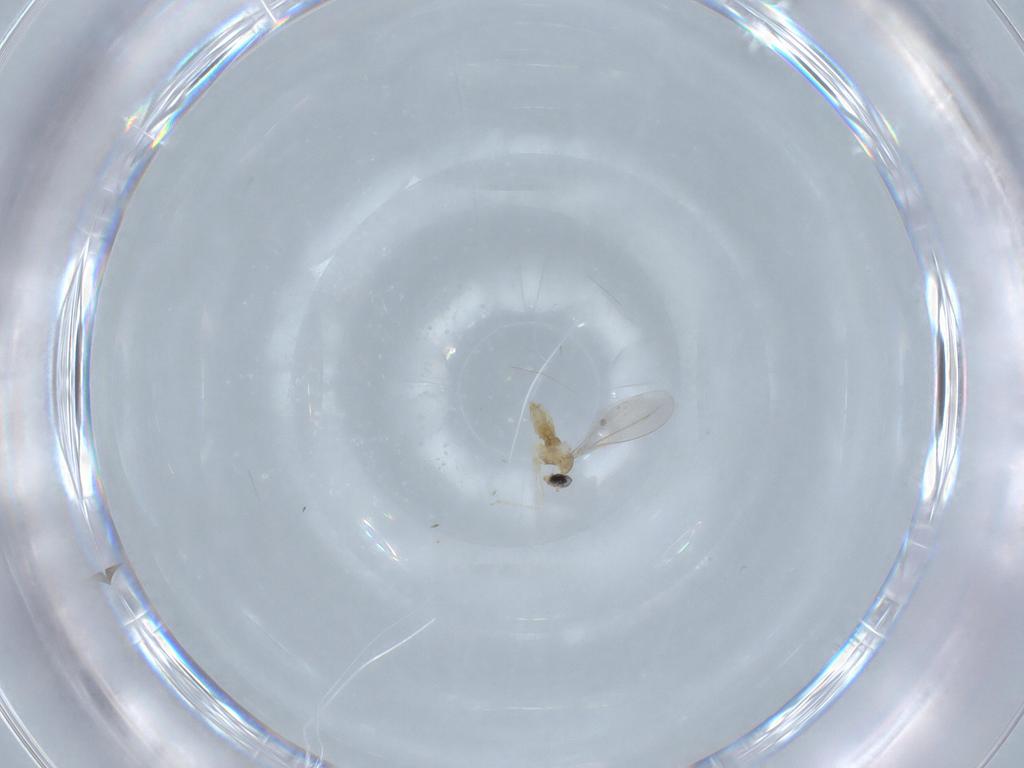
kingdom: Animalia
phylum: Arthropoda
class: Insecta
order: Diptera
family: Cecidomyiidae
